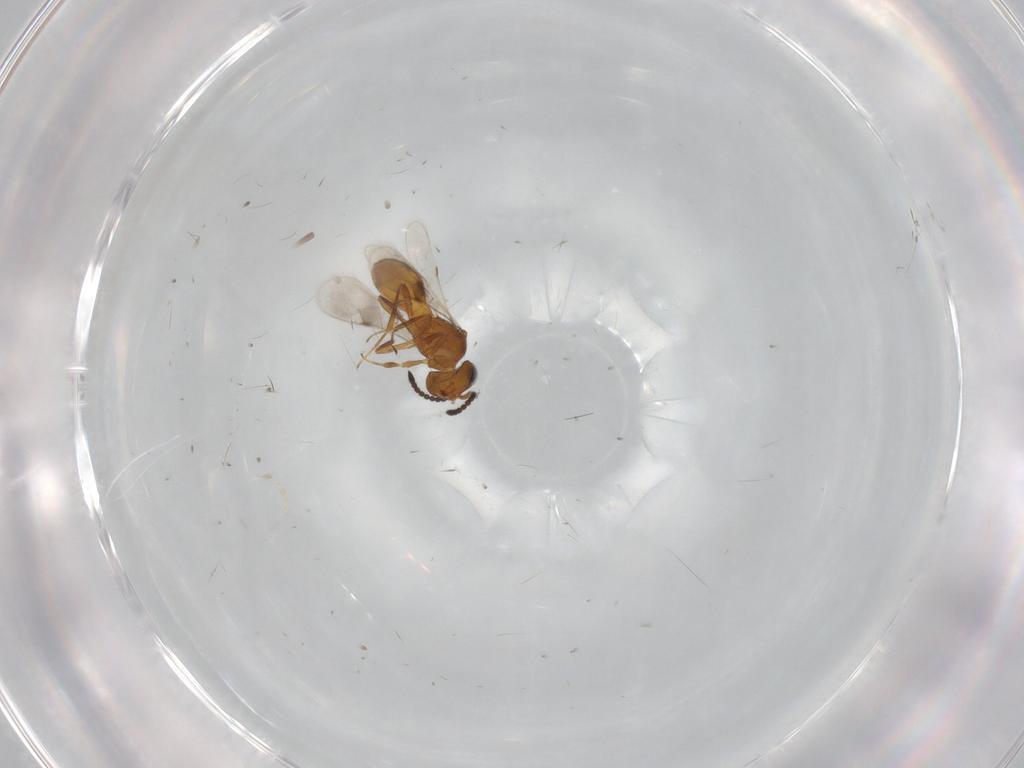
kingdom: Animalia
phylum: Arthropoda
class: Insecta
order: Hymenoptera
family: Scelionidae
